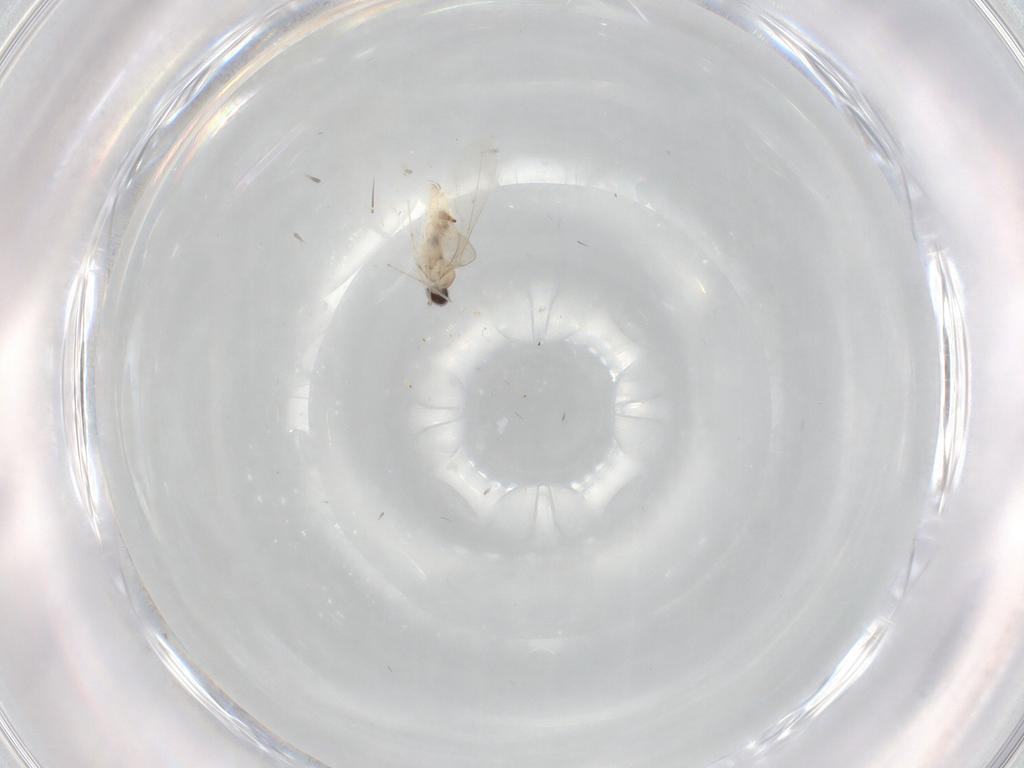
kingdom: Animalia
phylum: Arthropoda
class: Insecta
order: Diptera
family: Cecidomyiidae
